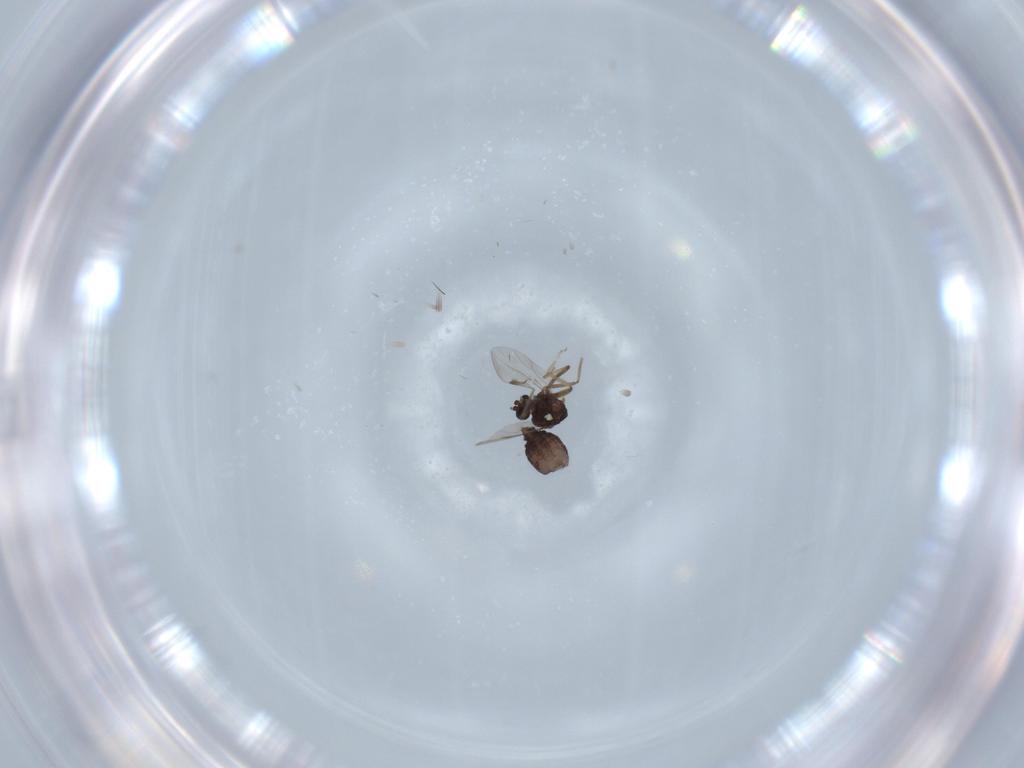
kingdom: Animalia
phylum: Arthropoda
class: Insecta
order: Diptera
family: Ceratopogonidae
